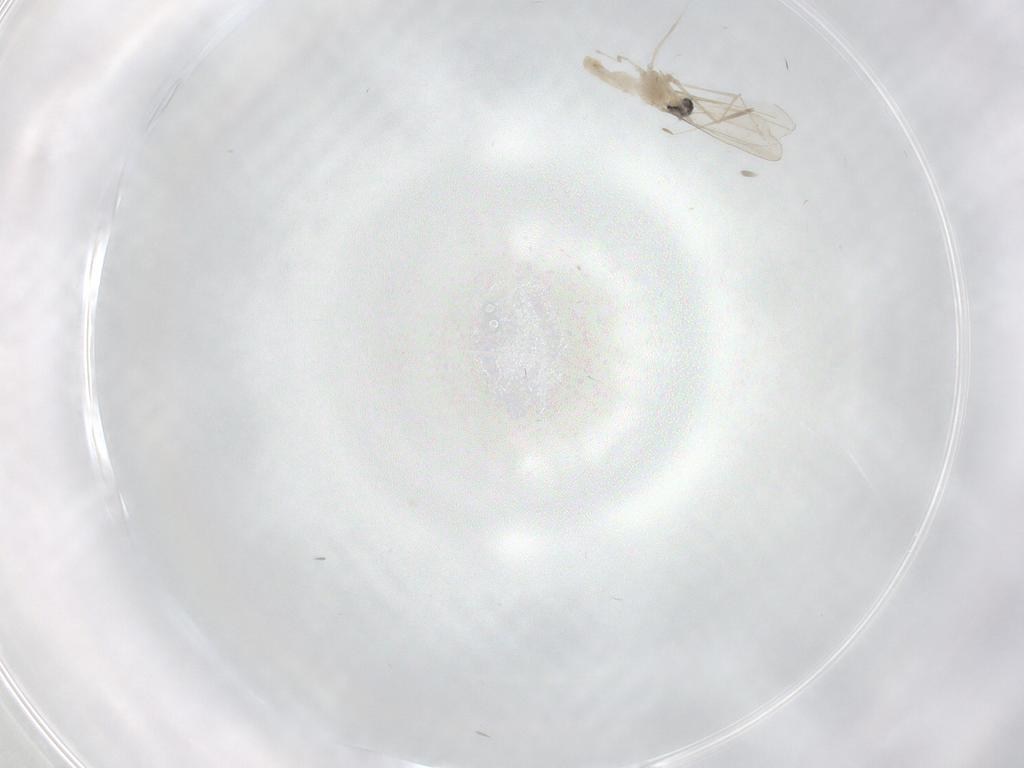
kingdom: Animalia
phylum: Arthropoda
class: Insecta
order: Diptera
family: Cecidomyiidae
